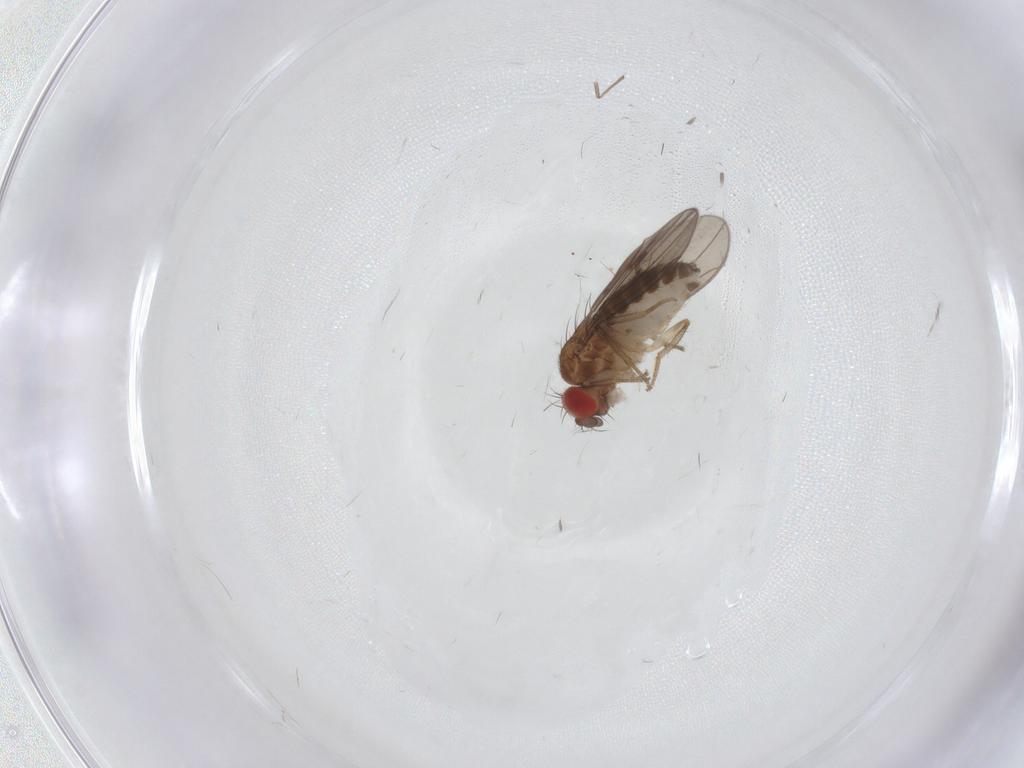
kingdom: Animalia
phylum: Arthropoda
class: Insecta
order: Diptera
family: Drosophilidae
